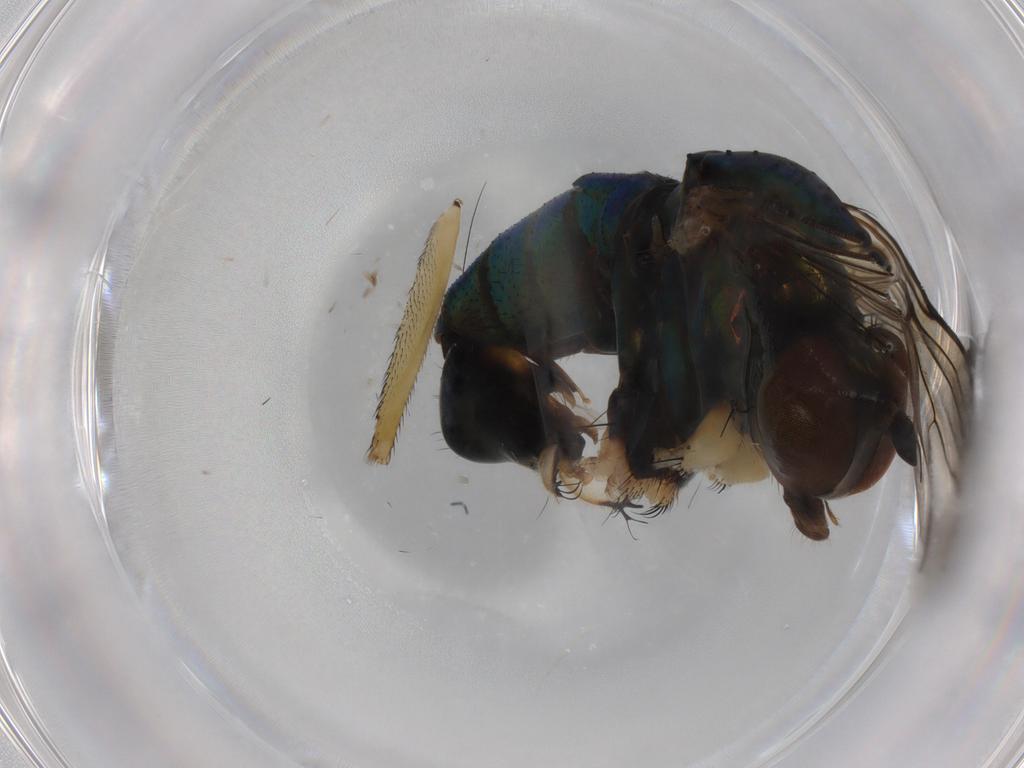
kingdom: Animalia
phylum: Arthropoda
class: Insecta
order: Diptera
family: Dolichopodidae
